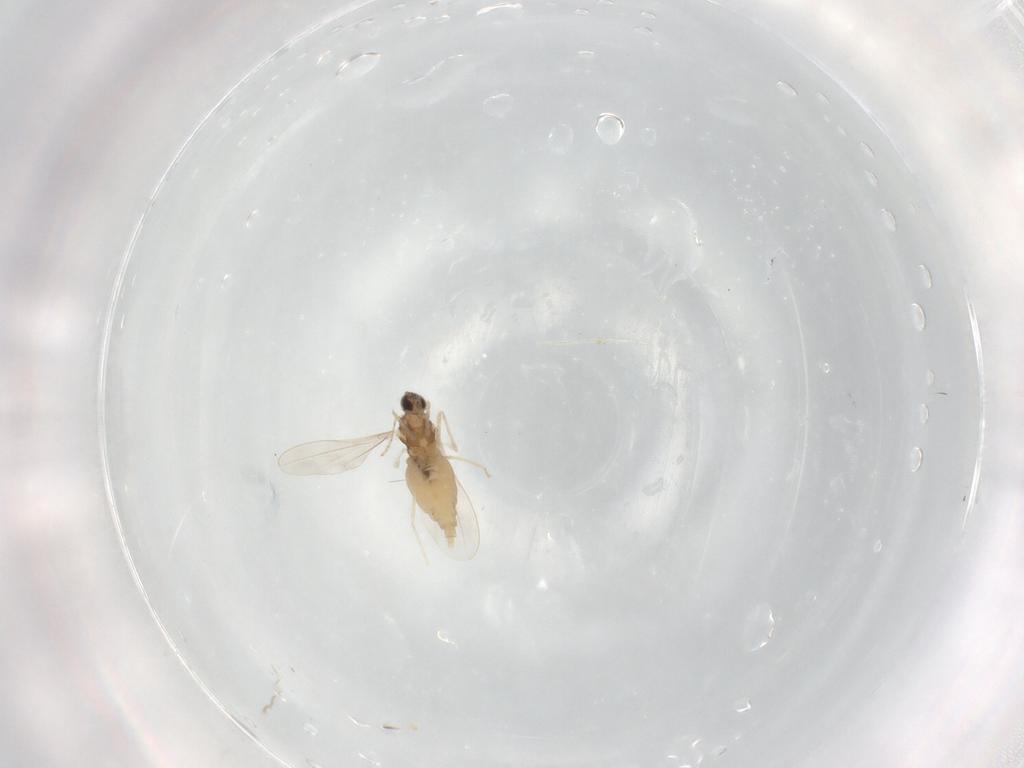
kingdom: Animalia
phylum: Arthropoda
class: Insecta
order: Diptera
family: Cecidomyiidae
